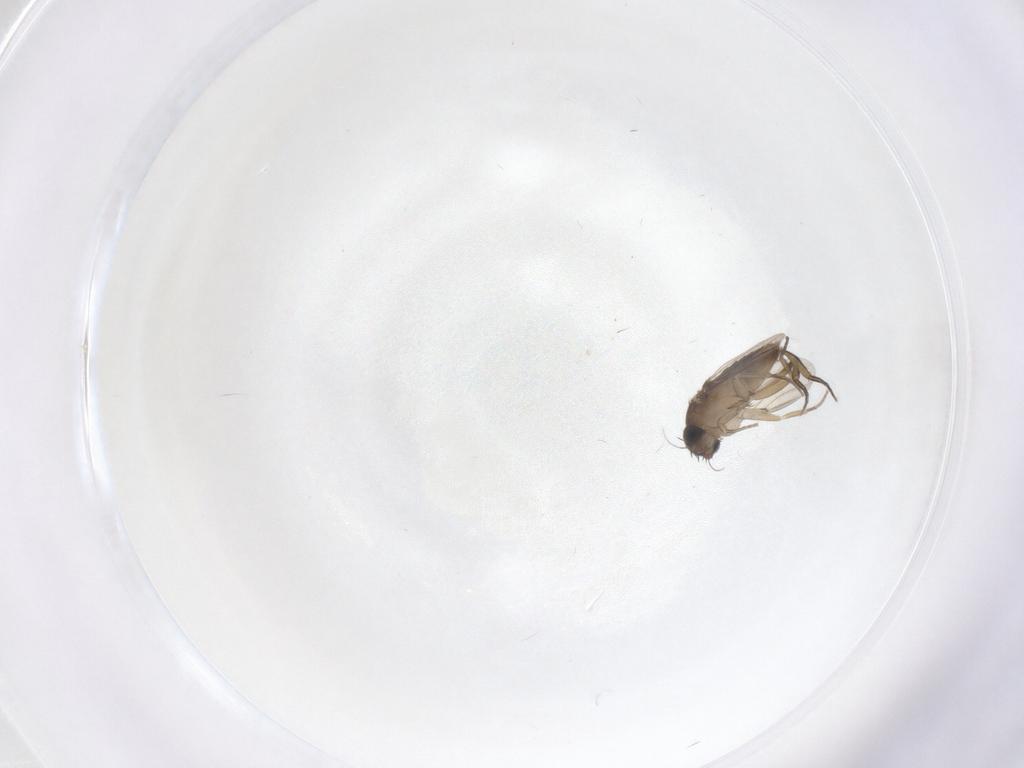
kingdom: Animalia
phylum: Arthropoda
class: Insecta
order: Diptera
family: Phoridae
